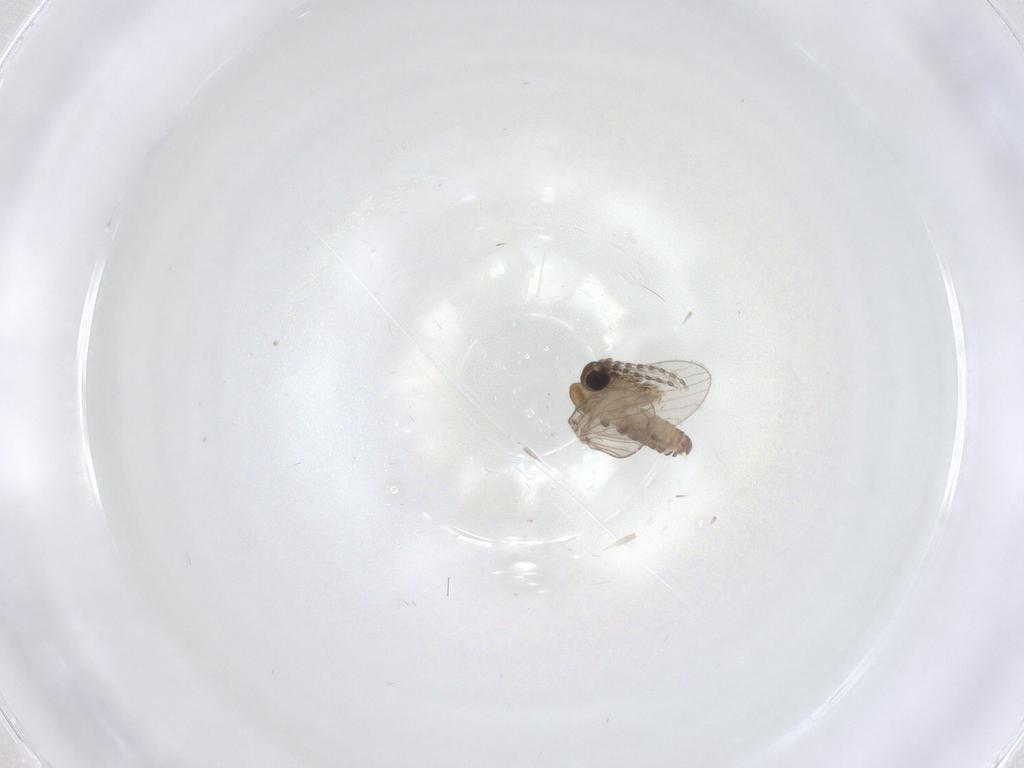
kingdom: Animalia
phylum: Arthropoda
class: Insecta
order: Diptera
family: Psychodidae
